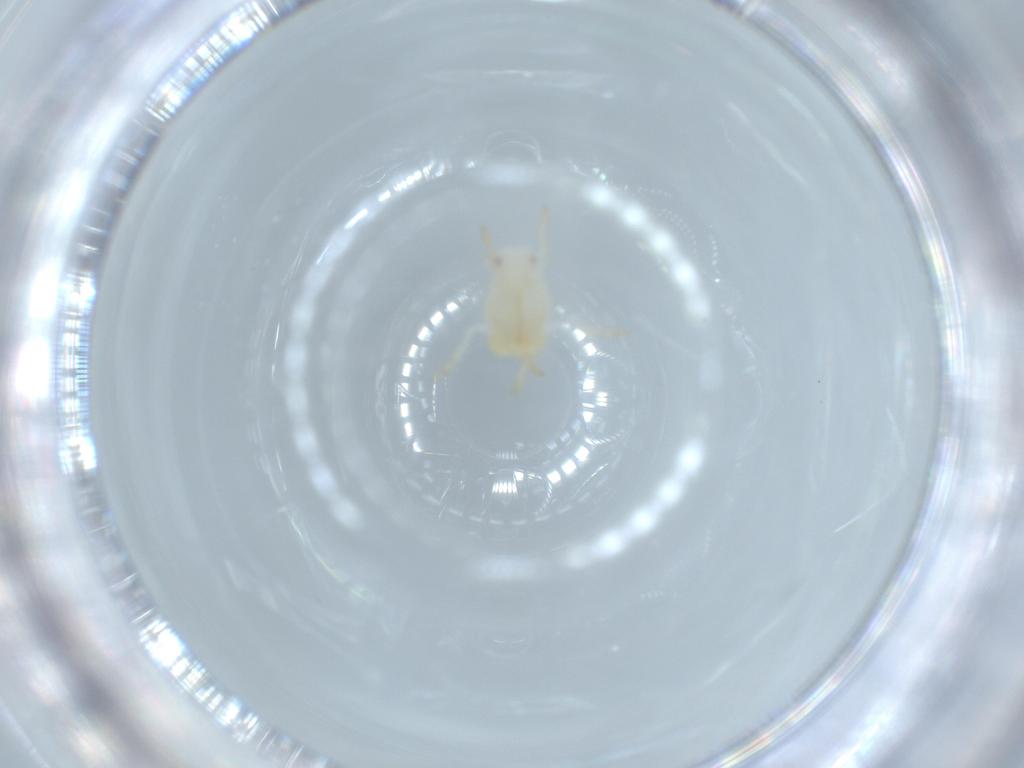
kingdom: Animalia
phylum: Arthropoda
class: Insecta
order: Hemiptera
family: Flatidae
